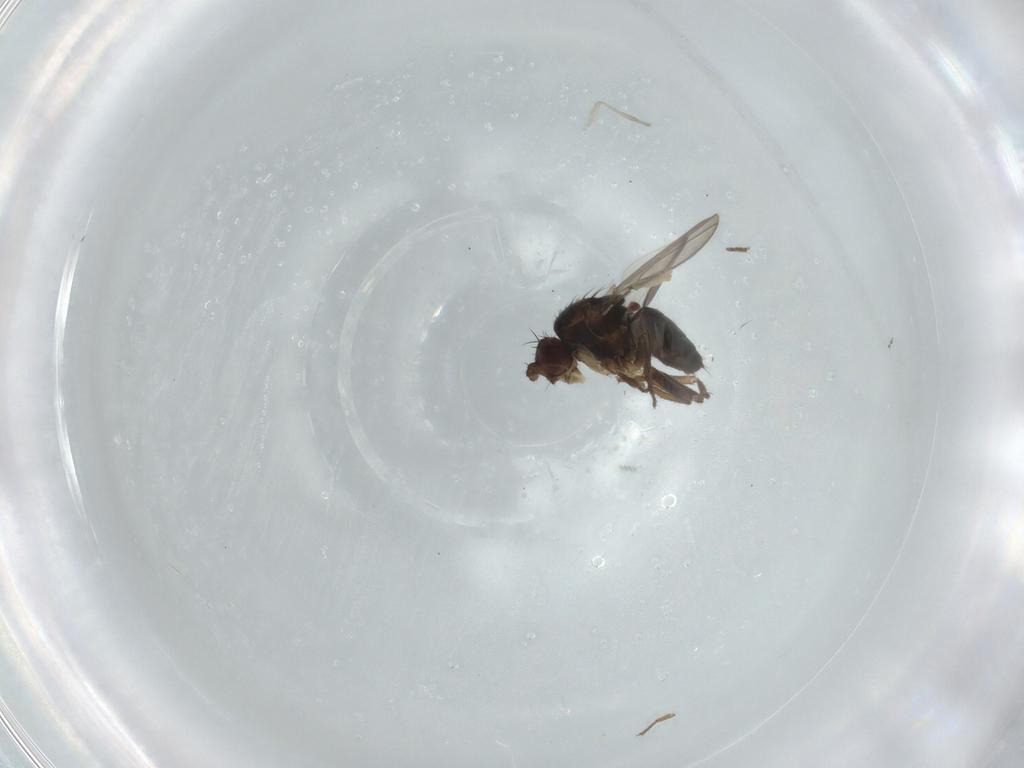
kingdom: Animalia
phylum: Arthropoda
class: Insecta
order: Diptera
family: Sphaeroceridae
